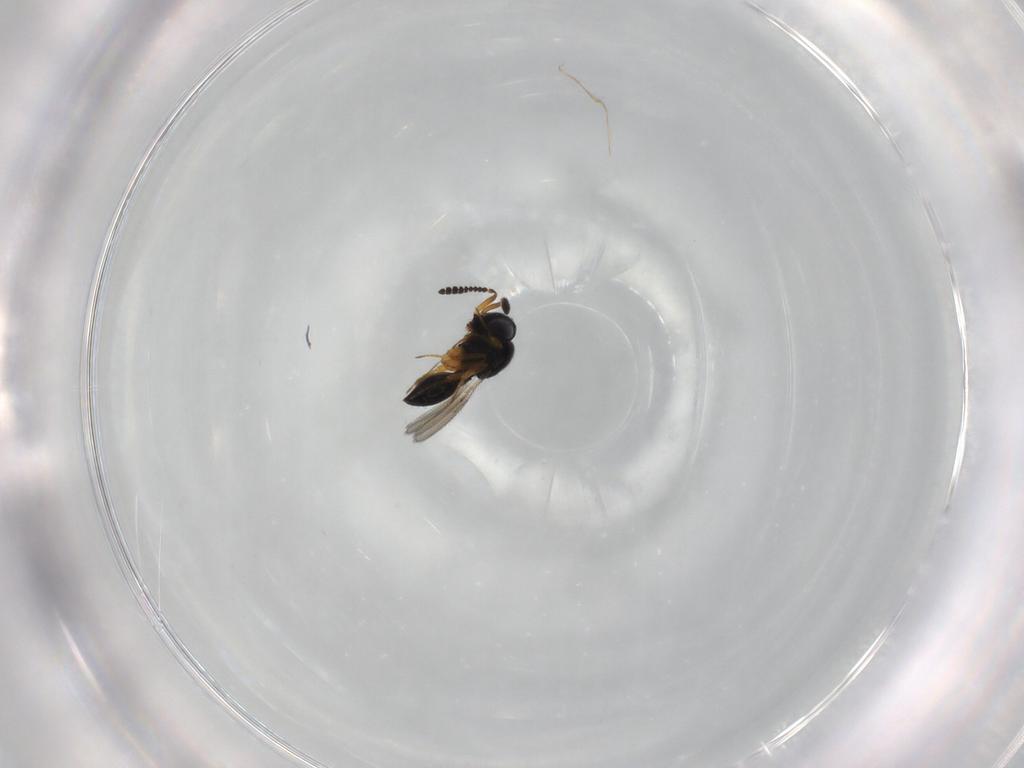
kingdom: Animalia
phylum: Arthropoda
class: Insecta
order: Hymenoptera
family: Scelionidae
